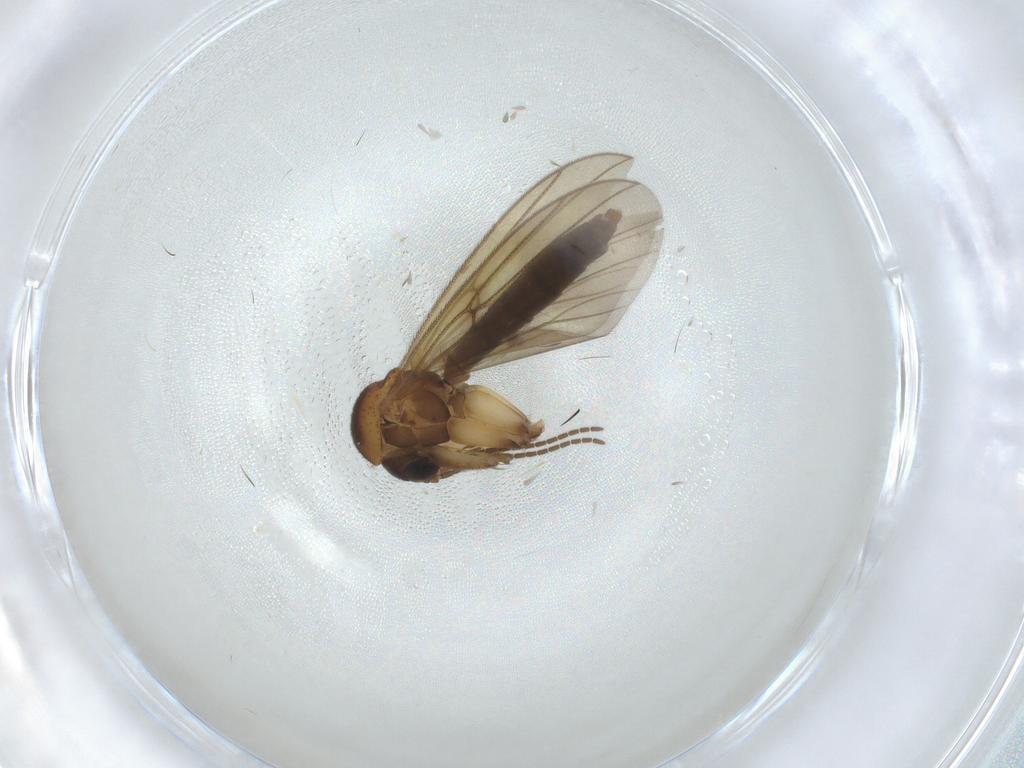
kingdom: Animalia
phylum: Arthropoda
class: Insecta
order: Diptera
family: Mycetophilidae
